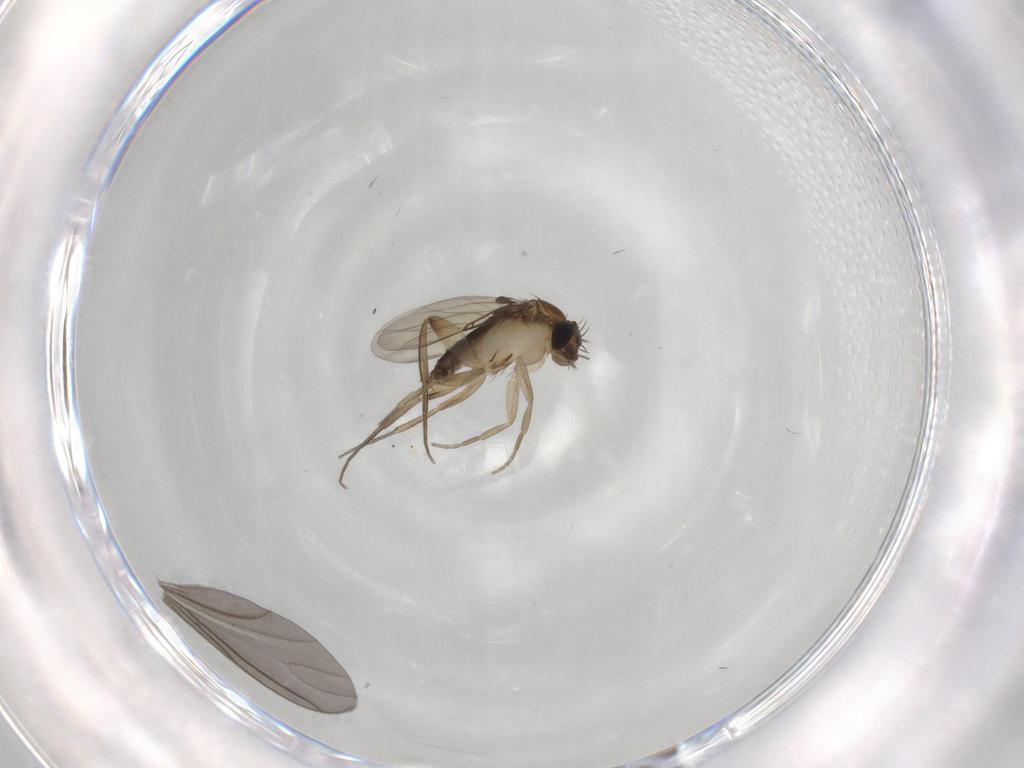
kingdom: Animalia
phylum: Arthropoda
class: Insecta
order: Diptera
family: Phoridae
